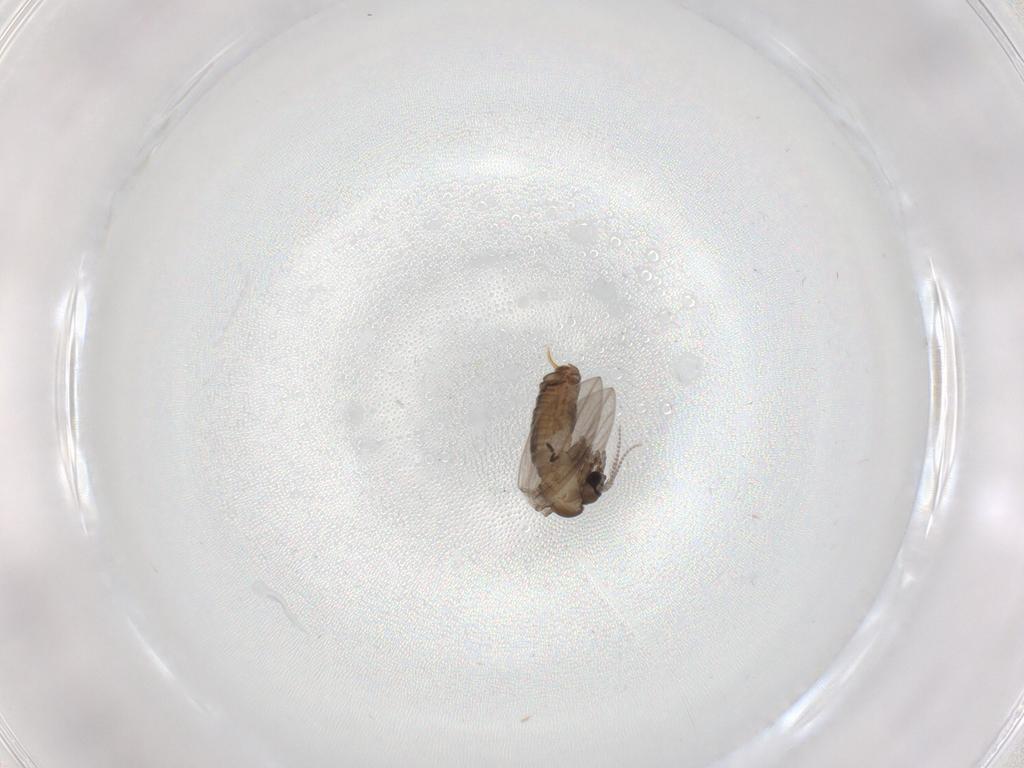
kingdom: Animalia
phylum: Arthropoda
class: Insecta
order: Diptera
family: Psychodidae
